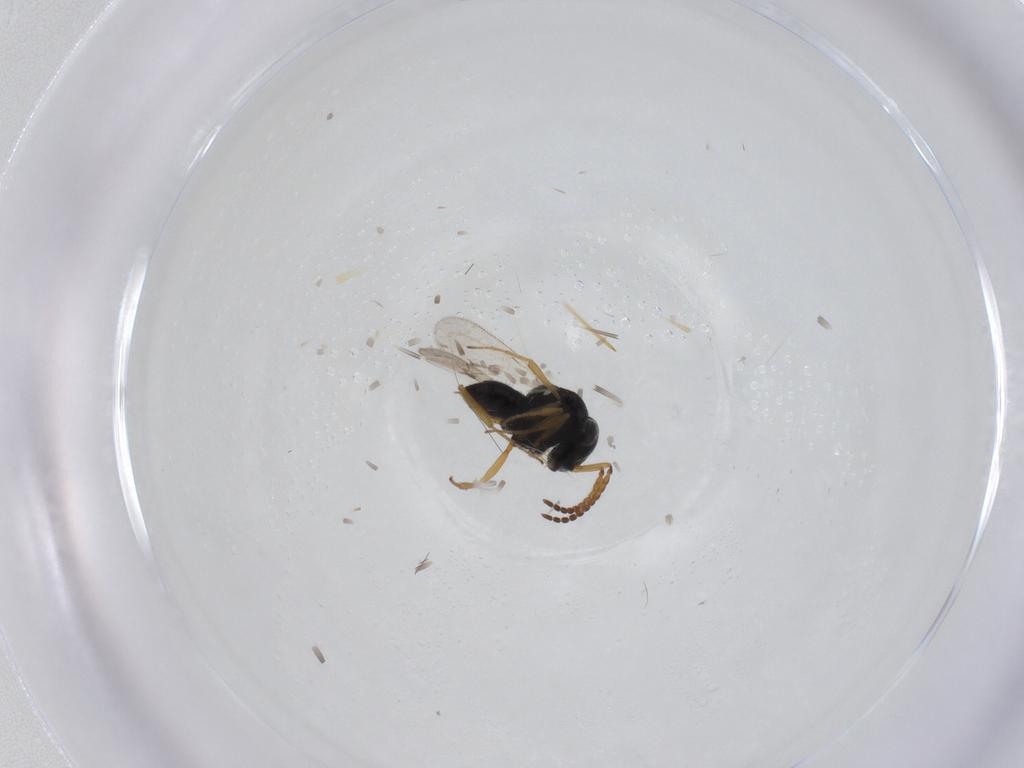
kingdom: Animalia
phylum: Arthropoda
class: Insecta
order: Hymenoptera
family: Scelionidae
